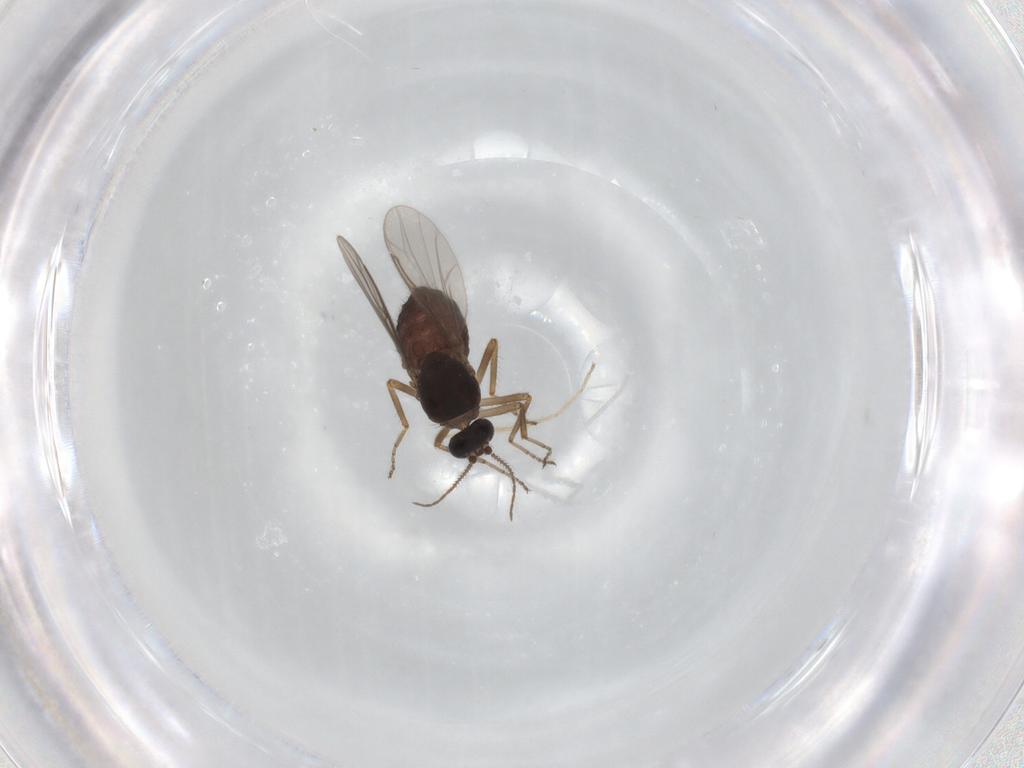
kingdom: Animalia
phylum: Arthropoda
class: Insecta
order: Diptera
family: Ceratopogonidae
